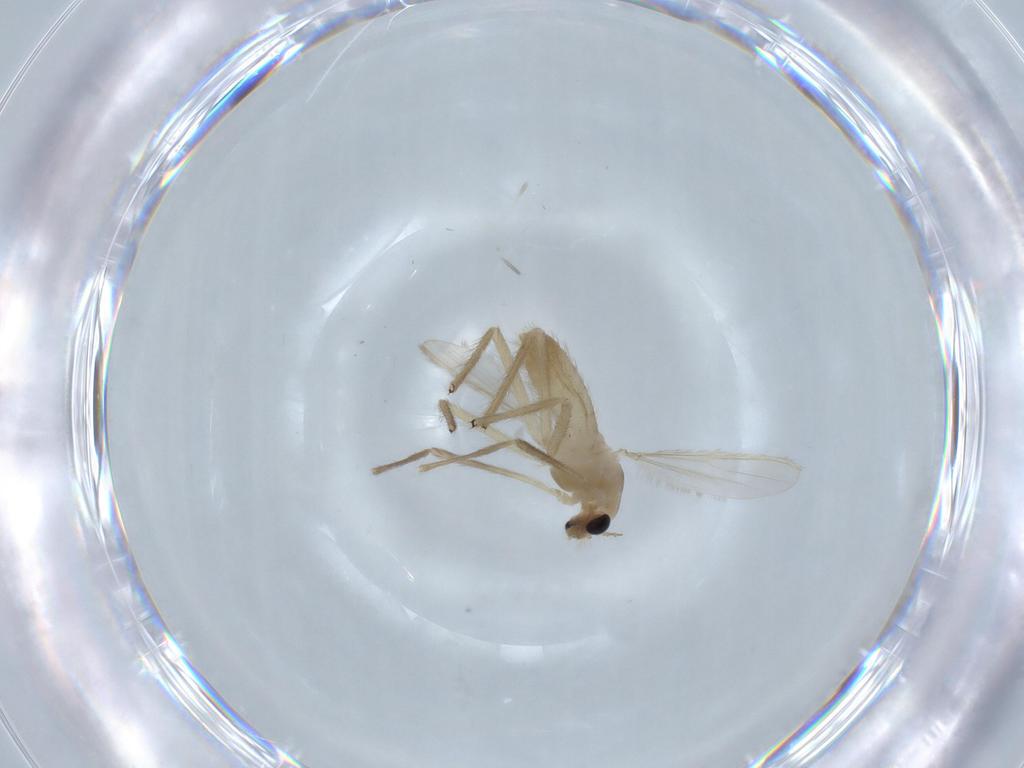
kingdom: Animalia
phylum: Arthropoda
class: Insecta
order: Diptera
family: Chironomidae
